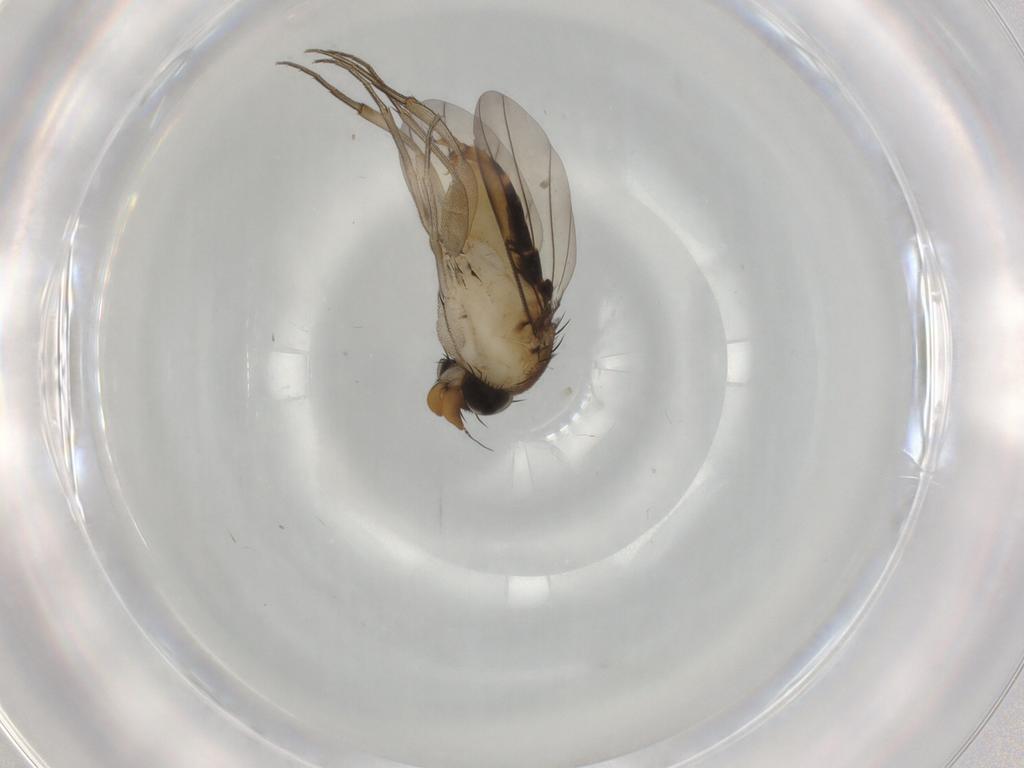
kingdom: Animalia
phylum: Arthropoda
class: Insecta
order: Diptera
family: Phoridae
